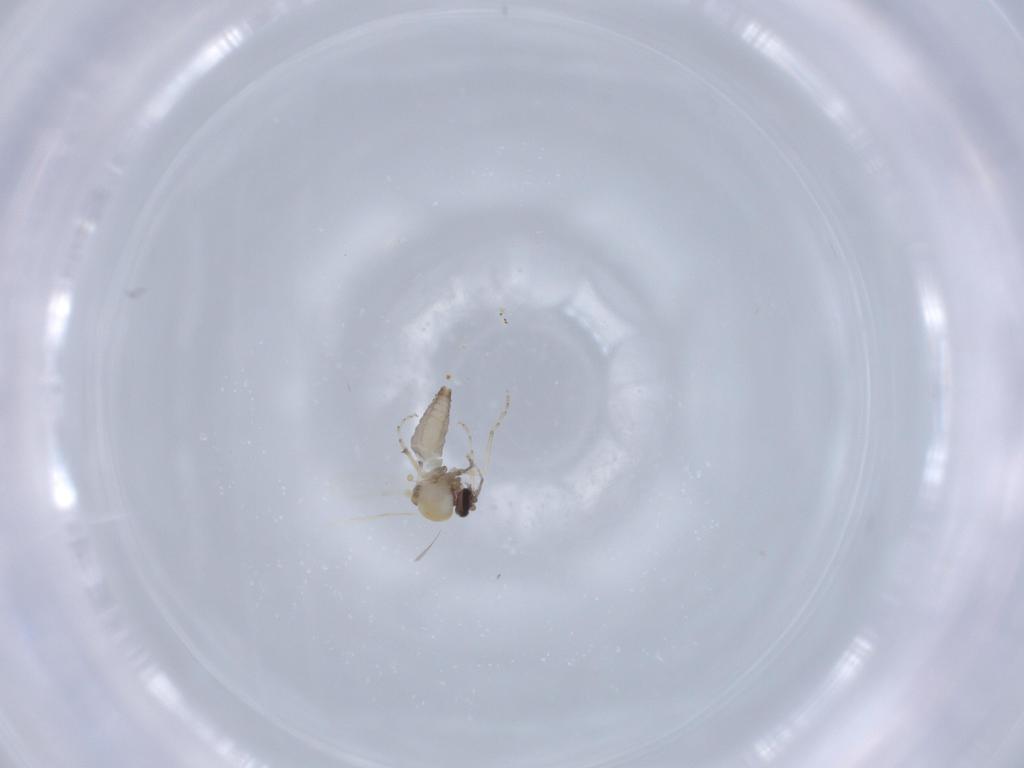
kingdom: Animalia
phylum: Arthropoda
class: Insecta
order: Diptera
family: Ceratopogonidae
